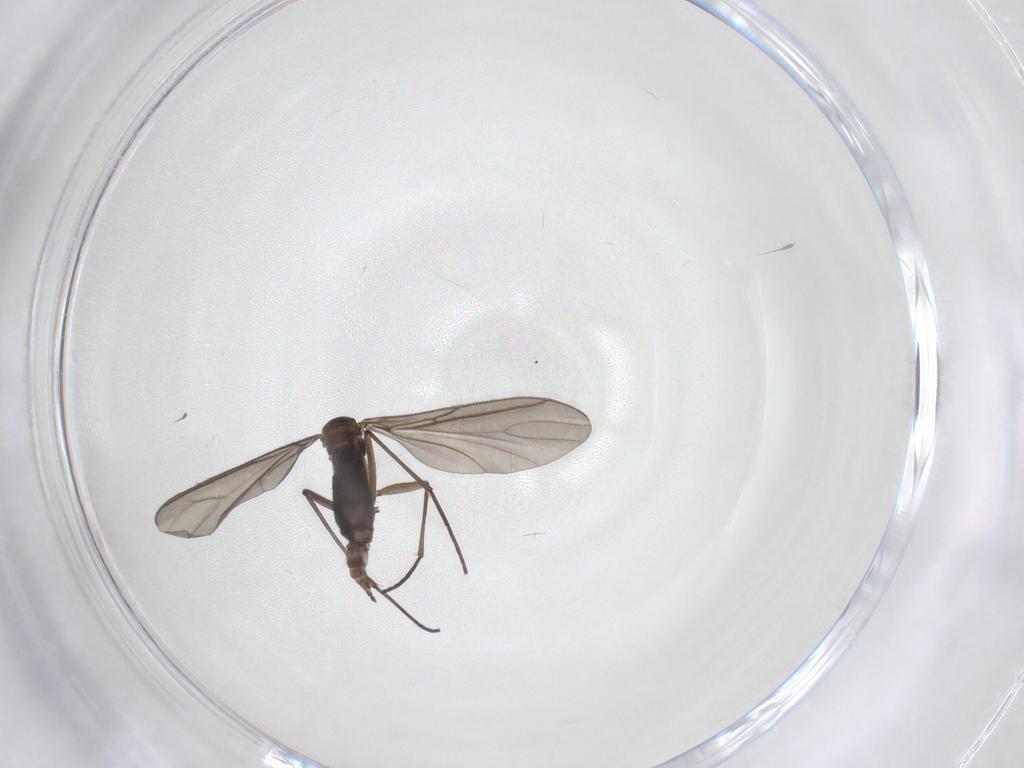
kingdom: Animalia
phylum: Arthropoda
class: Insecta
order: Diptera
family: Sciaridae
